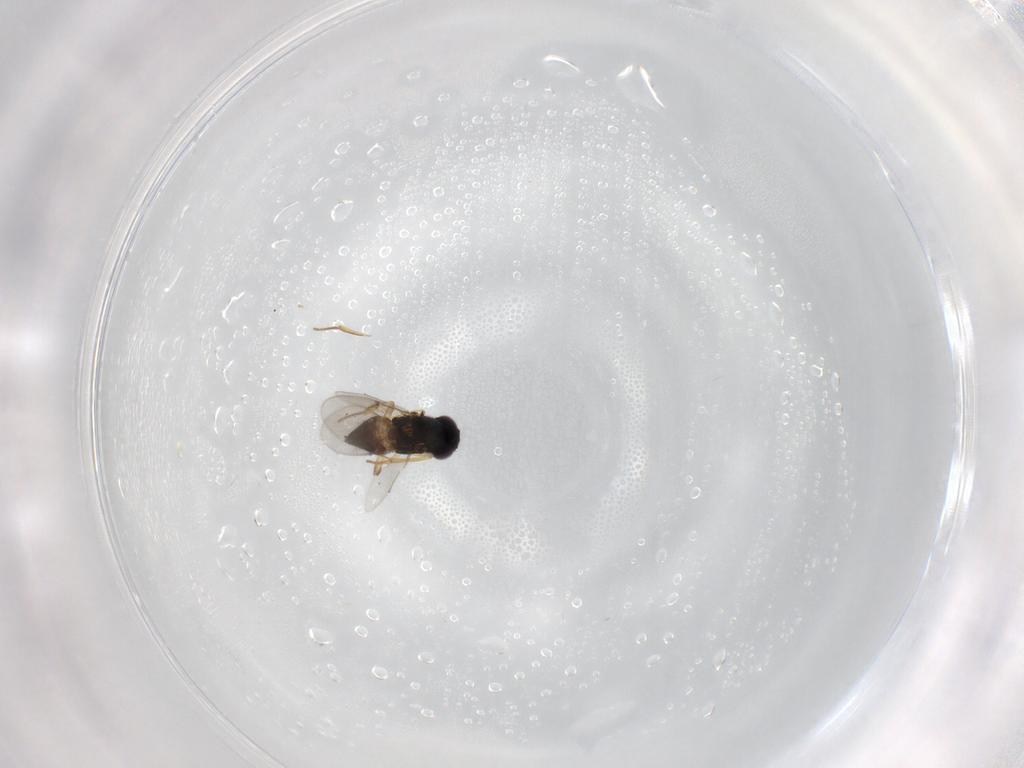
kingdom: Animalia
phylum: Arthropoda
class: Insecta
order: Hymenoptera
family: Encyrtidae
